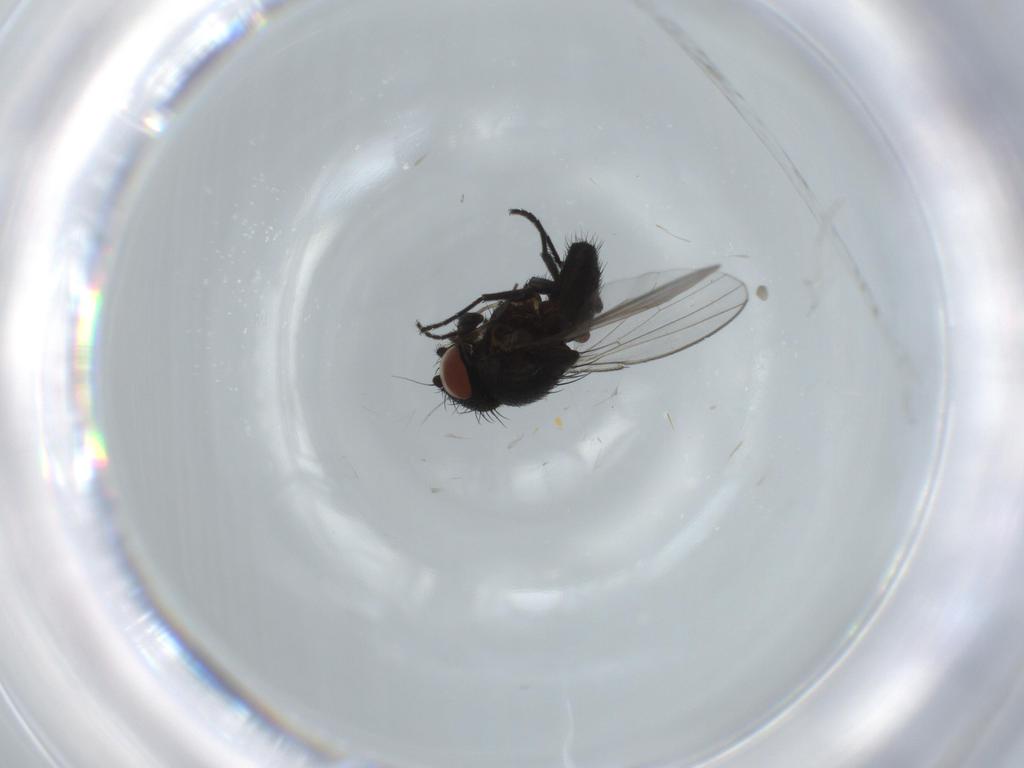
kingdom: Animalia
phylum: Arthropoda
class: Insecta
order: Diptera
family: Milichiidae
